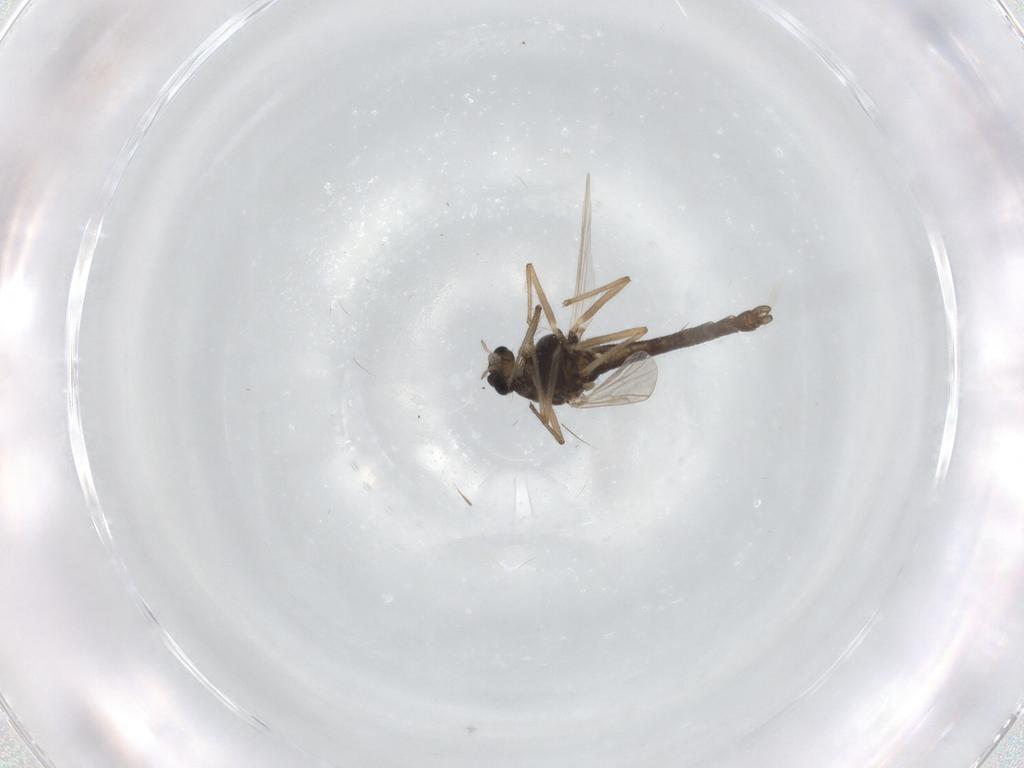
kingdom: Animalia
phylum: Arthropoda
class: Insecta
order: Diptera
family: Chironomidae
